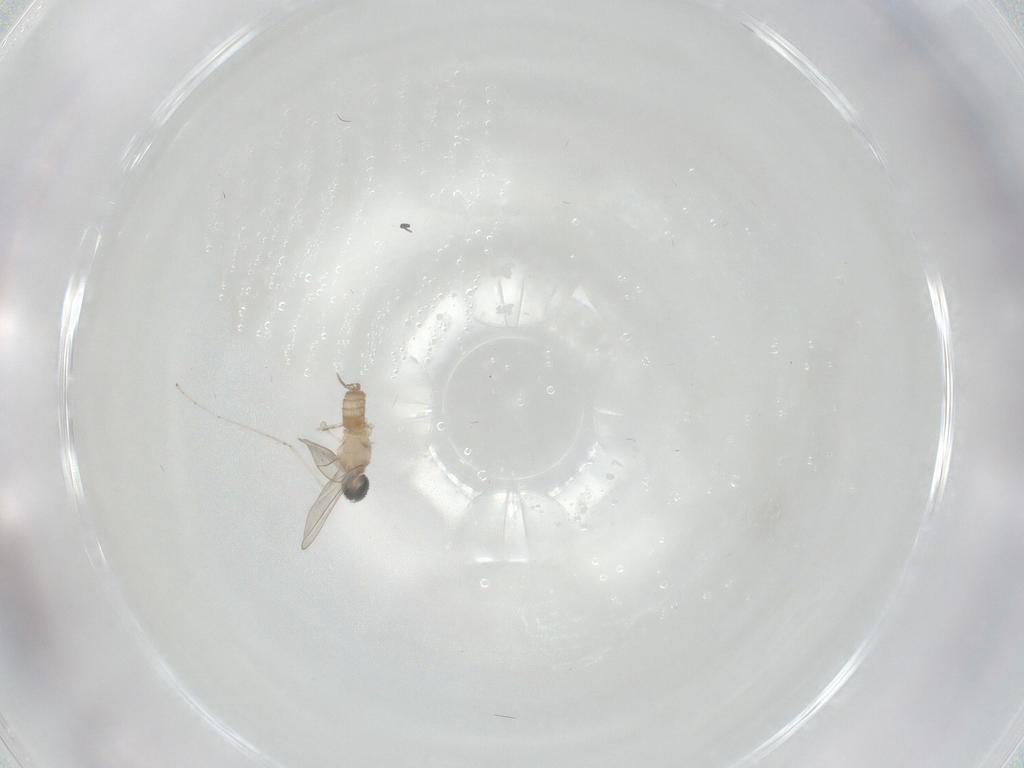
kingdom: Animalia
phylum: Arthropoda
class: Insecta
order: Diptera
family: Cecidomyiidae
